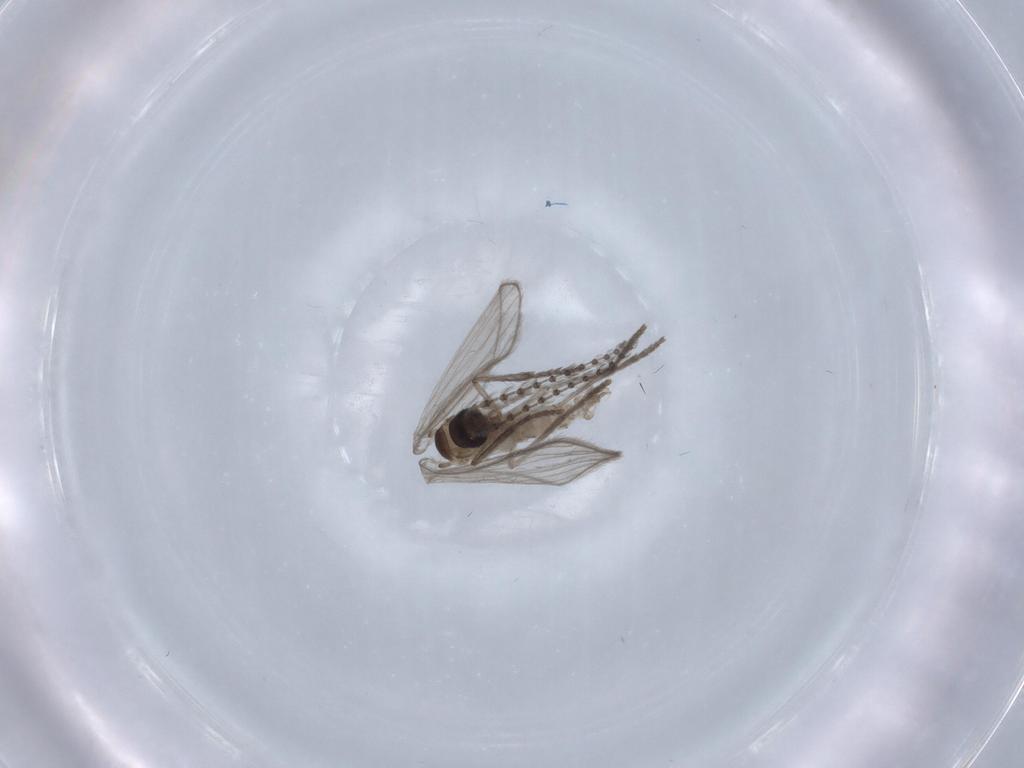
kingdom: Animalia
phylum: Arthropoda
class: Insecta
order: Diptera
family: Psychodidae
